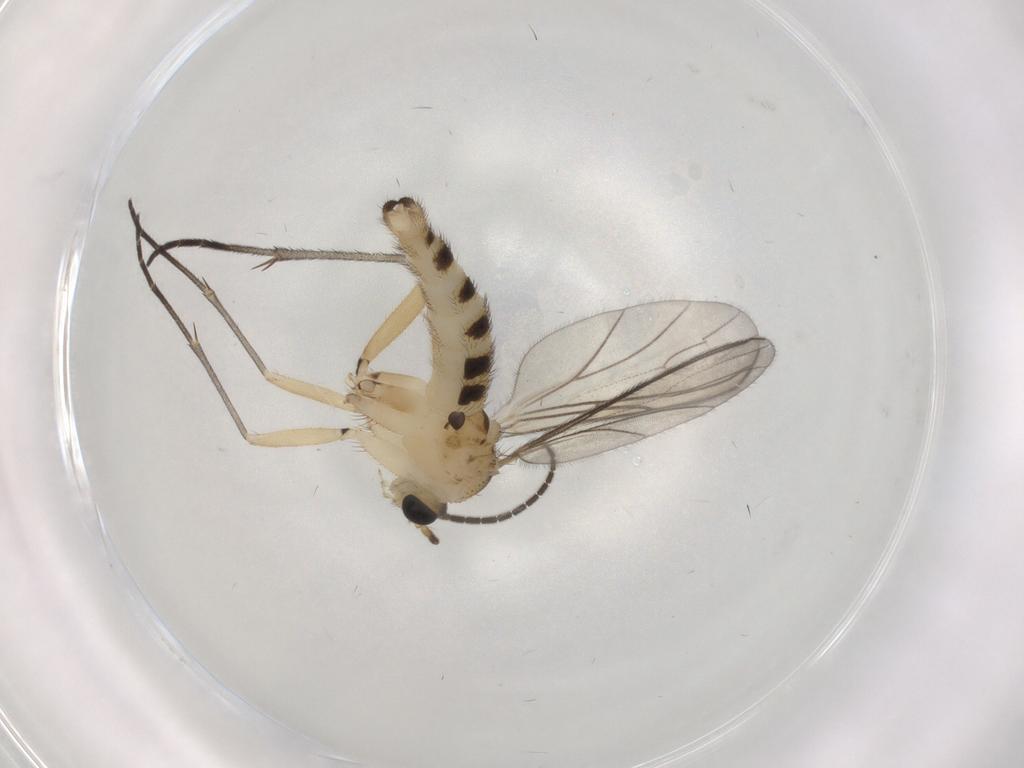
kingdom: Animalia
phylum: Arthropoda
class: Insecta
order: Diptera
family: Sciaridae
